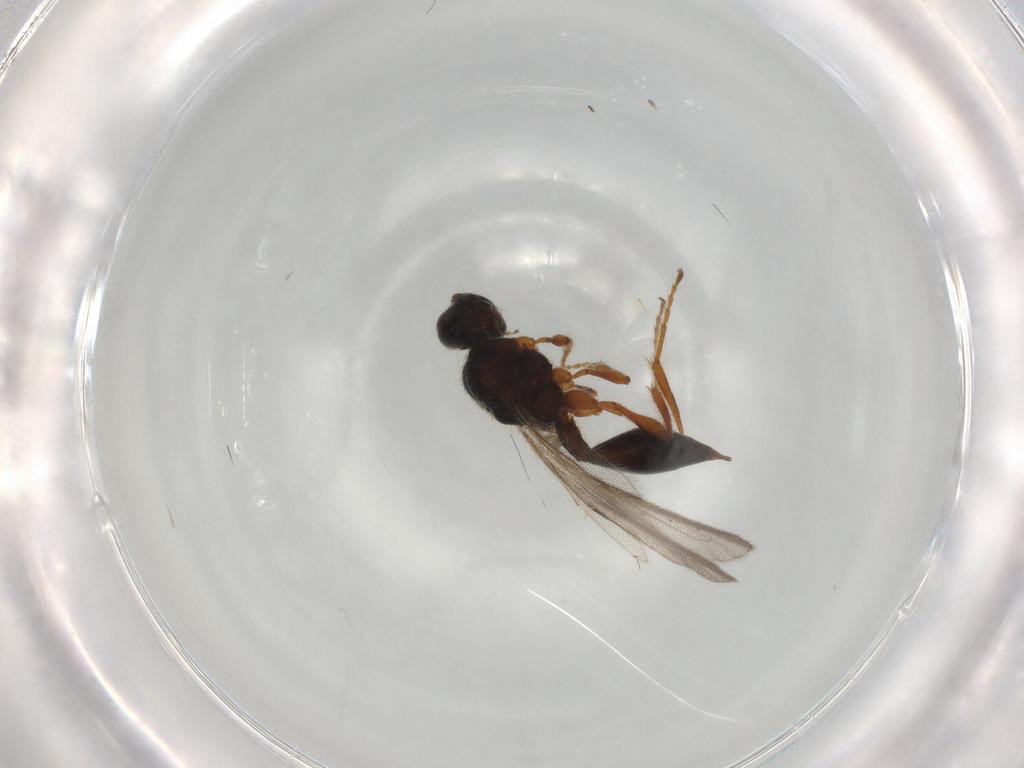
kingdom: Animalia
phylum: Arthropoda
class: Insecta
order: Hymenoptera
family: Diapriidae
